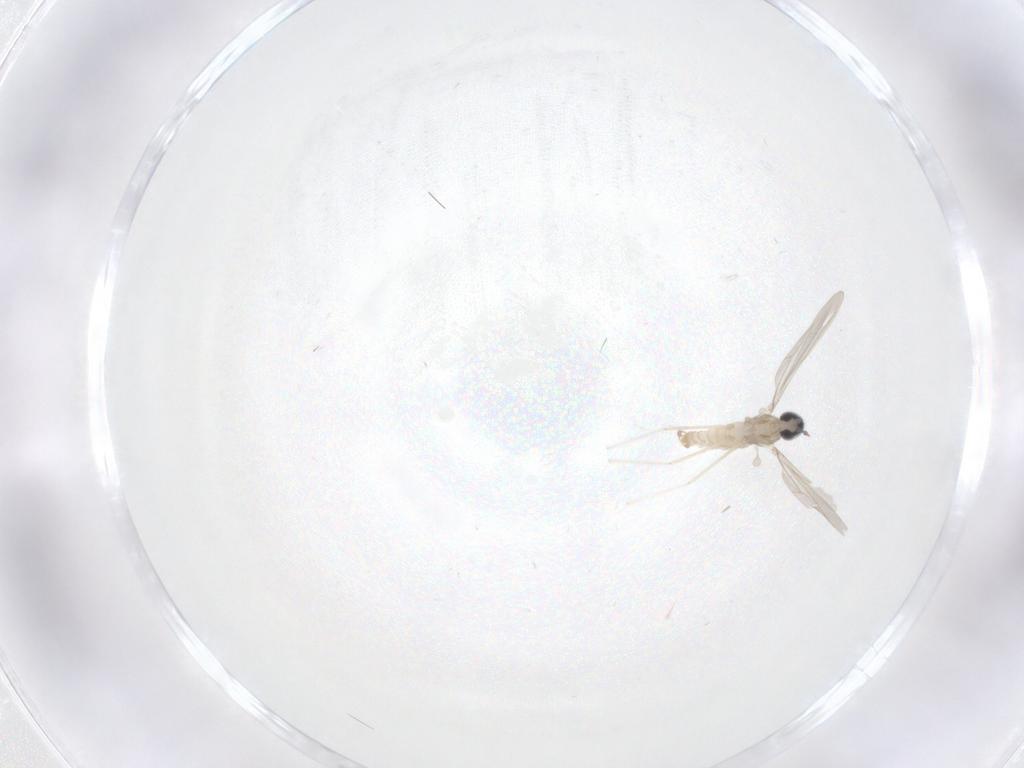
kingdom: Animalia
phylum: Arthropoda
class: Insecta
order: Diptera
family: Cecidomyiidae
